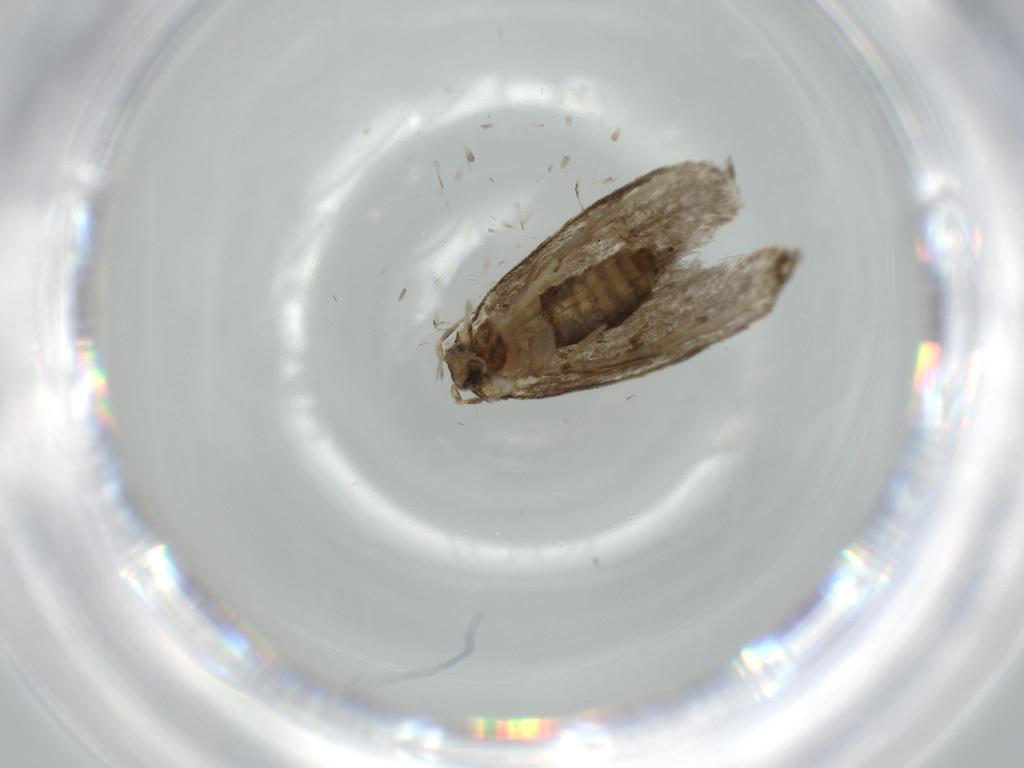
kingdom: Animalia
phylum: Arthropoda
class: Insecta
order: Lepidoptera
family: Tineidae
